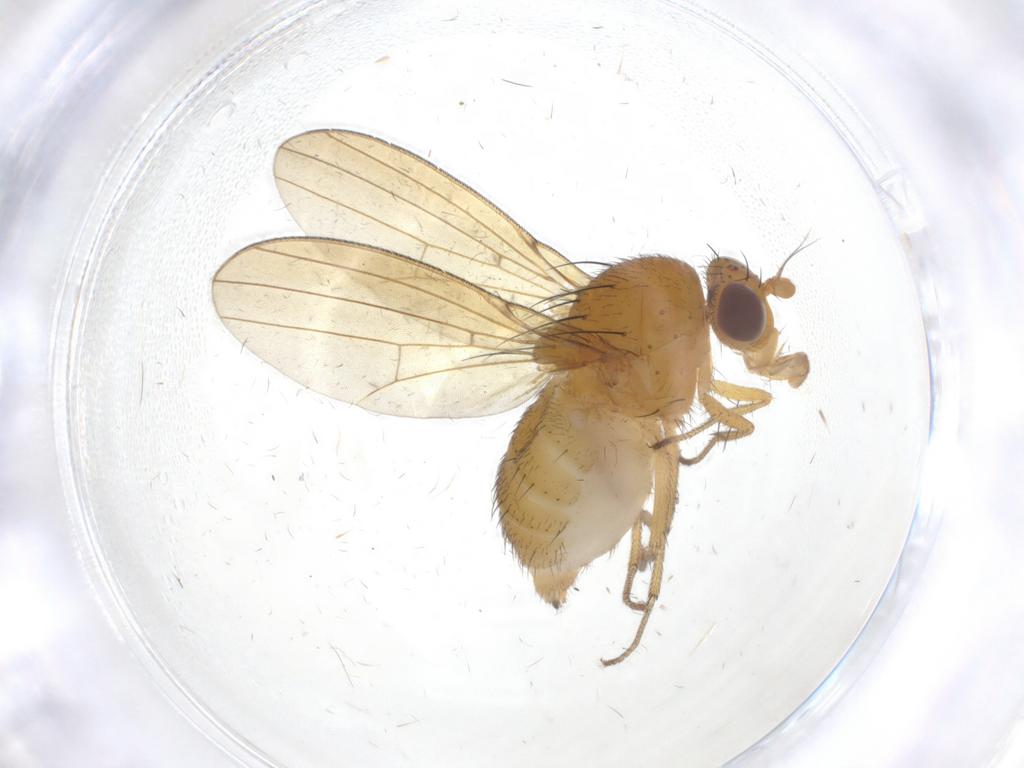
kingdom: Animalia
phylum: Arthropoda
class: Insecta
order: Diptera
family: Lauxaniidae
